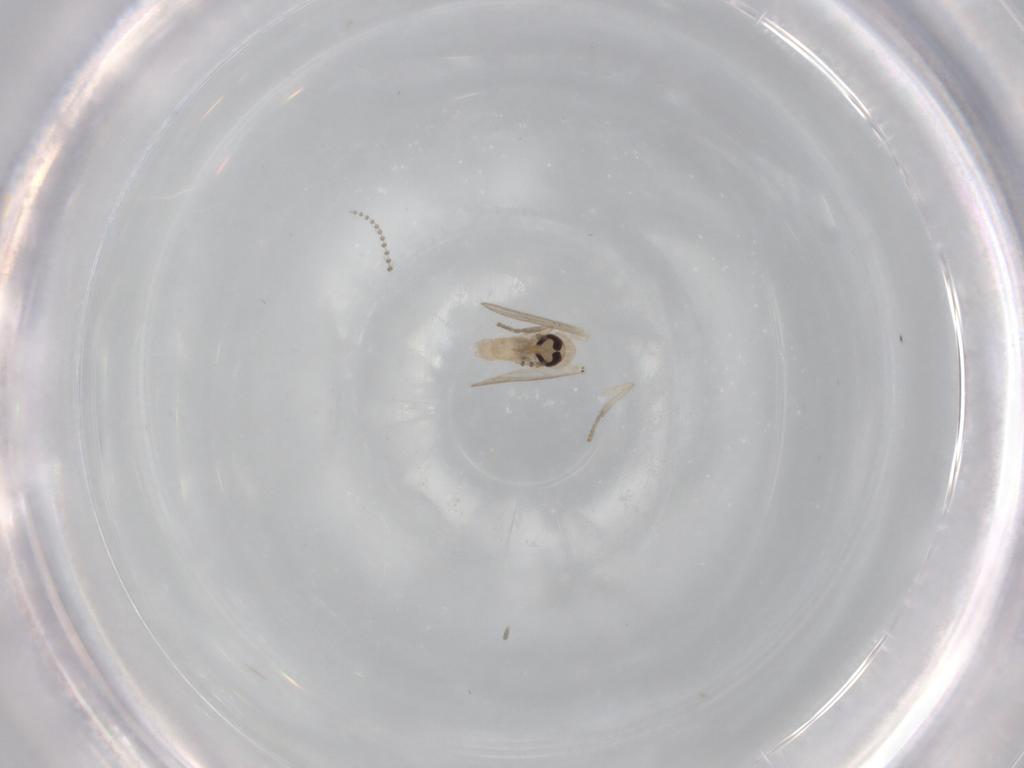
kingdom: Animalia
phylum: Arthropoda
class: Insecta
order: Diptera
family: Psychodidae
